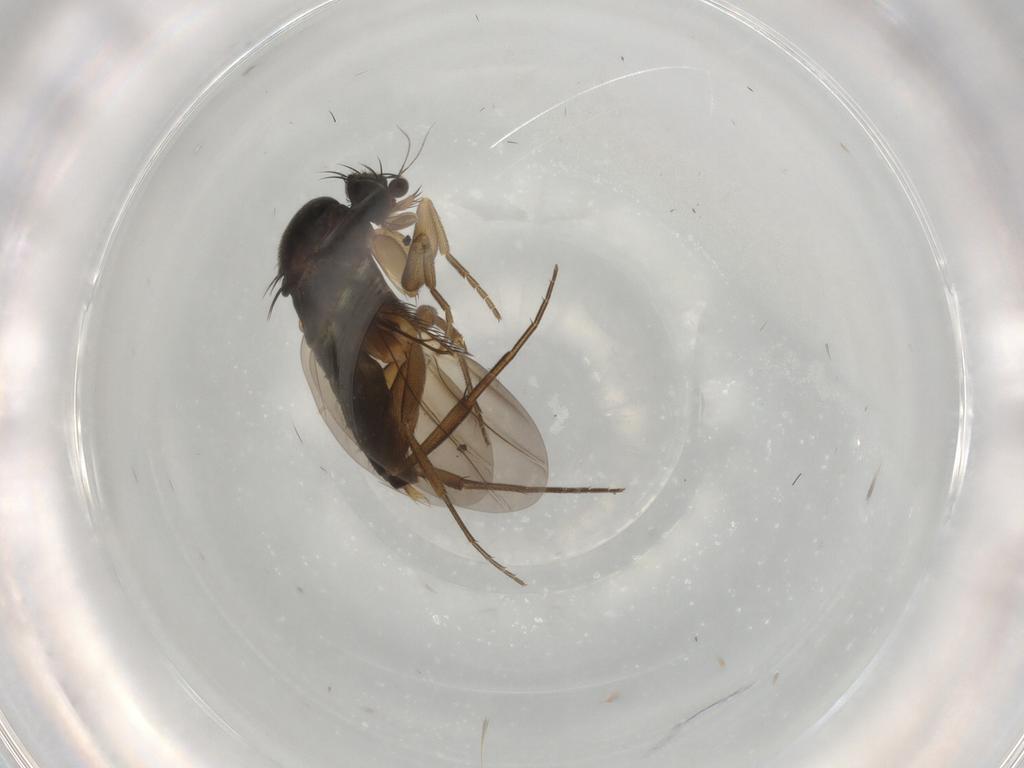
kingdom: Animalia
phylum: Arthropoda
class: Insecta
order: Diptera
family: Phoridae
